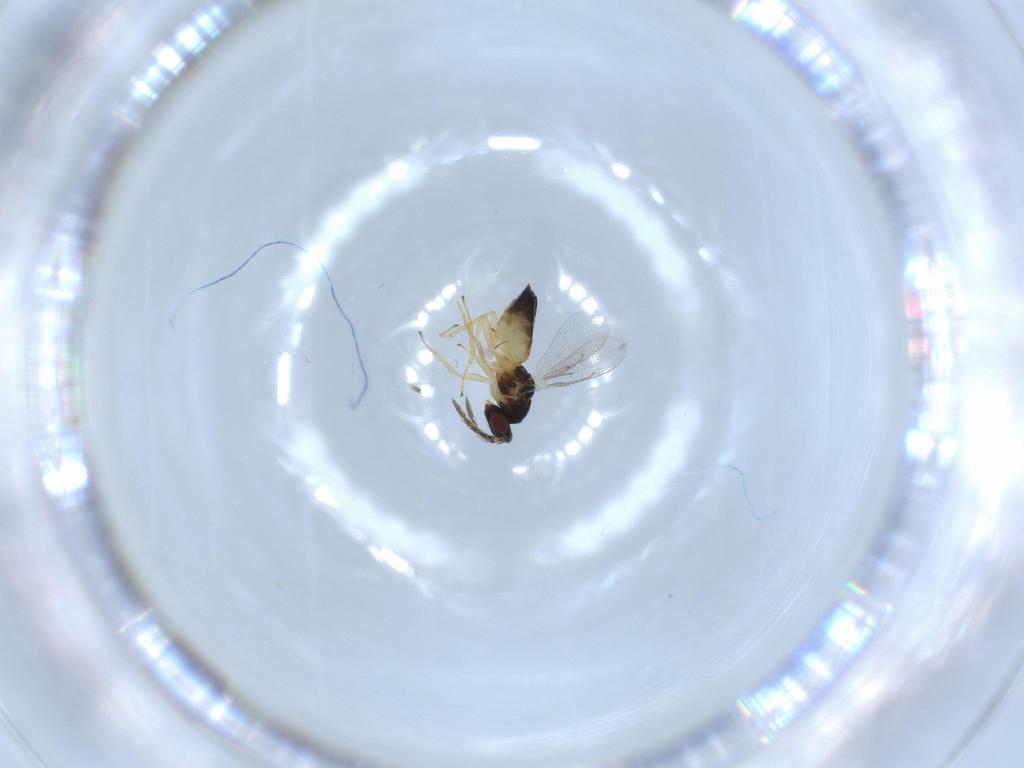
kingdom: Animalia
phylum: Arthropoda
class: Insecta
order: Hymenoptera
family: Eulophidae
